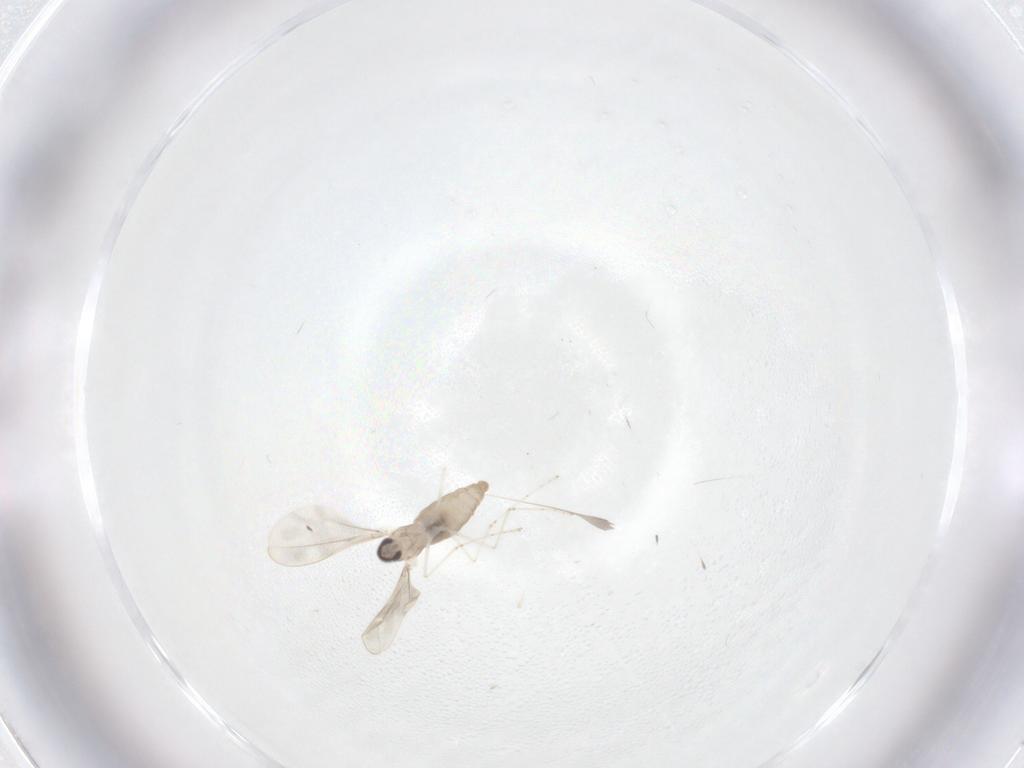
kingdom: Animalia
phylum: Arthropoda
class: Insecta
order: Diptera
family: Cecidomyiidae
